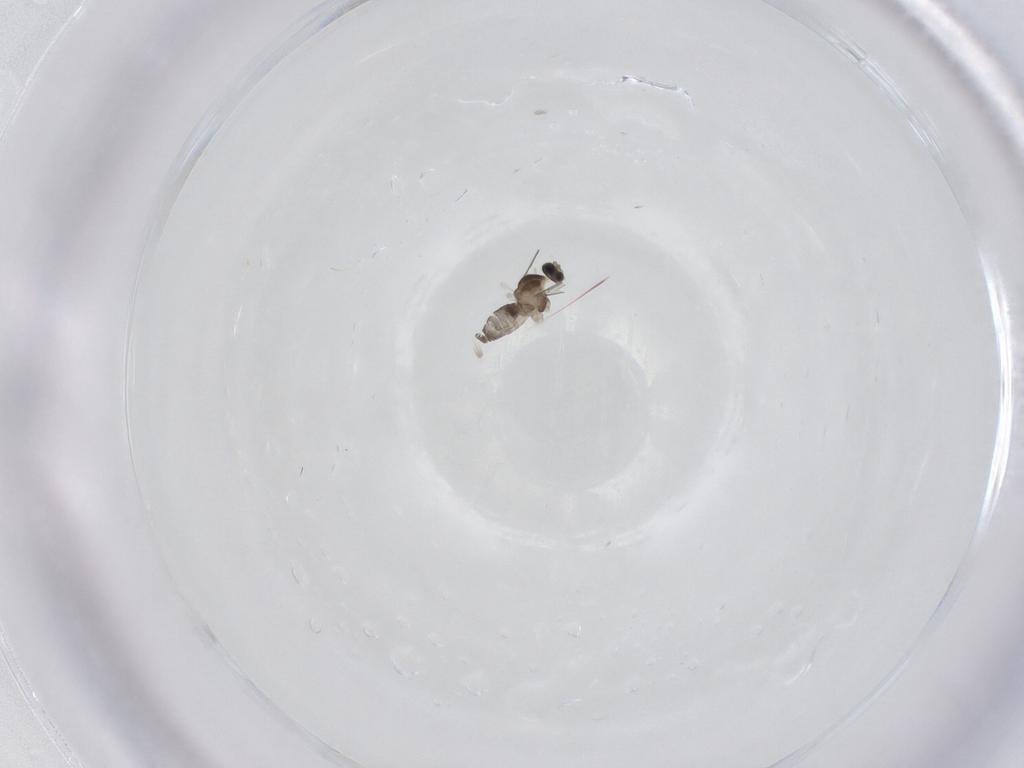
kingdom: Animalia
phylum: Arthropoda
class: Insecta
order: Diptera
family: Cecidomyiidae
